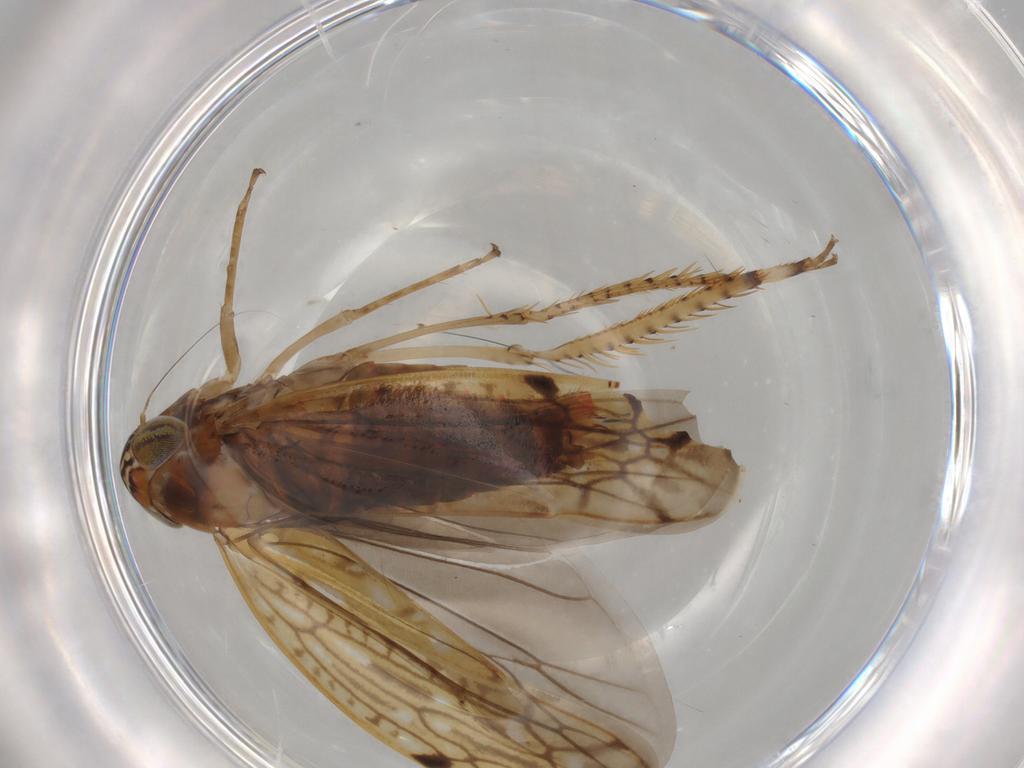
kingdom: Animalia
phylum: Arthropoda
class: Insecta
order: Hemiptera
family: Cicadellidae
